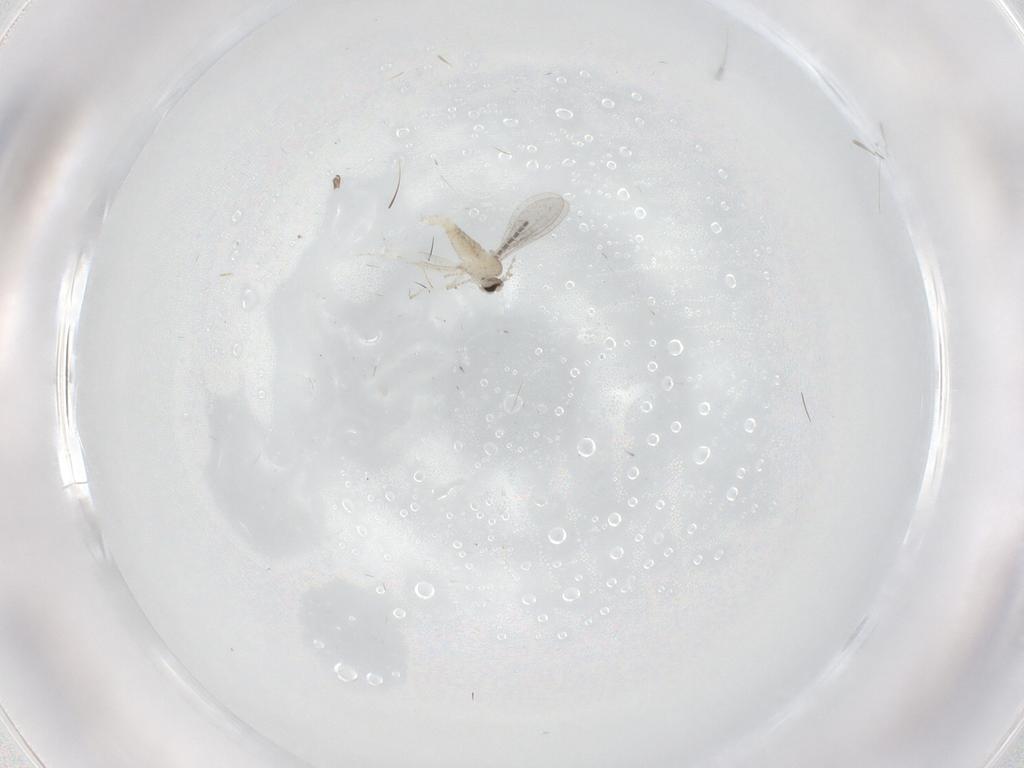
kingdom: Animalia
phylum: Arthropoda
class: Insecta
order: Diptera
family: Cecidomyiidae
